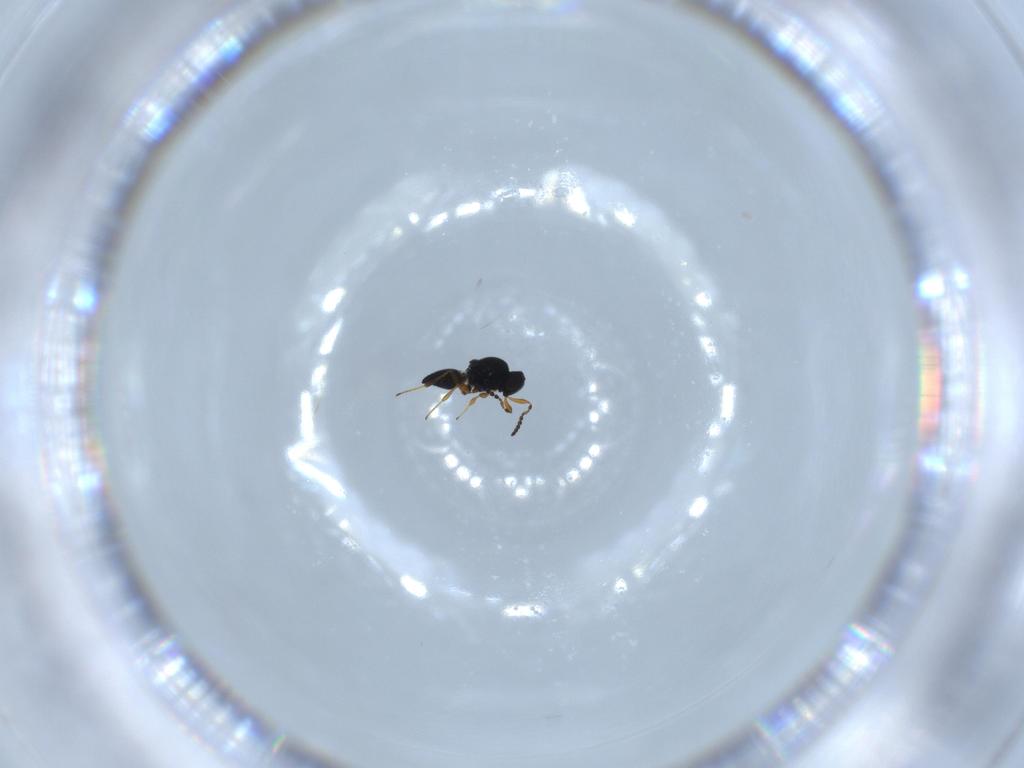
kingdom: Animalia
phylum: Arthropoda
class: Insecta
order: Hymenoptera
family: Platygastridae
